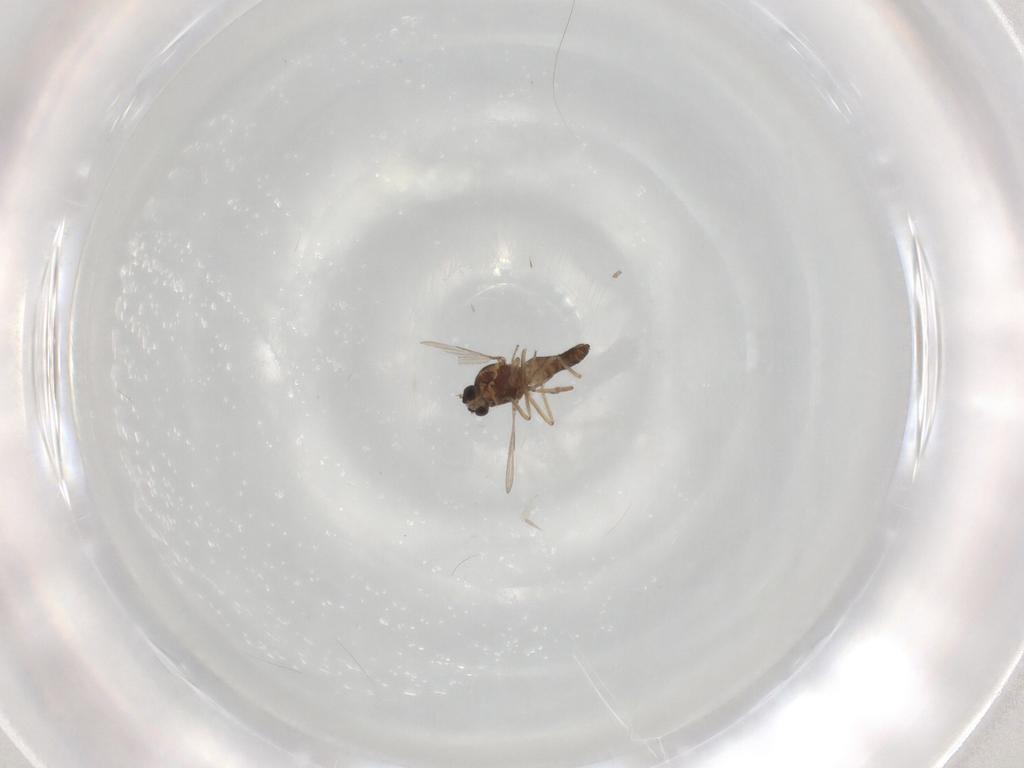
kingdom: Animalia
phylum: Arthropoda
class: Insecta
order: Diptera
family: Ceratopogonidae
